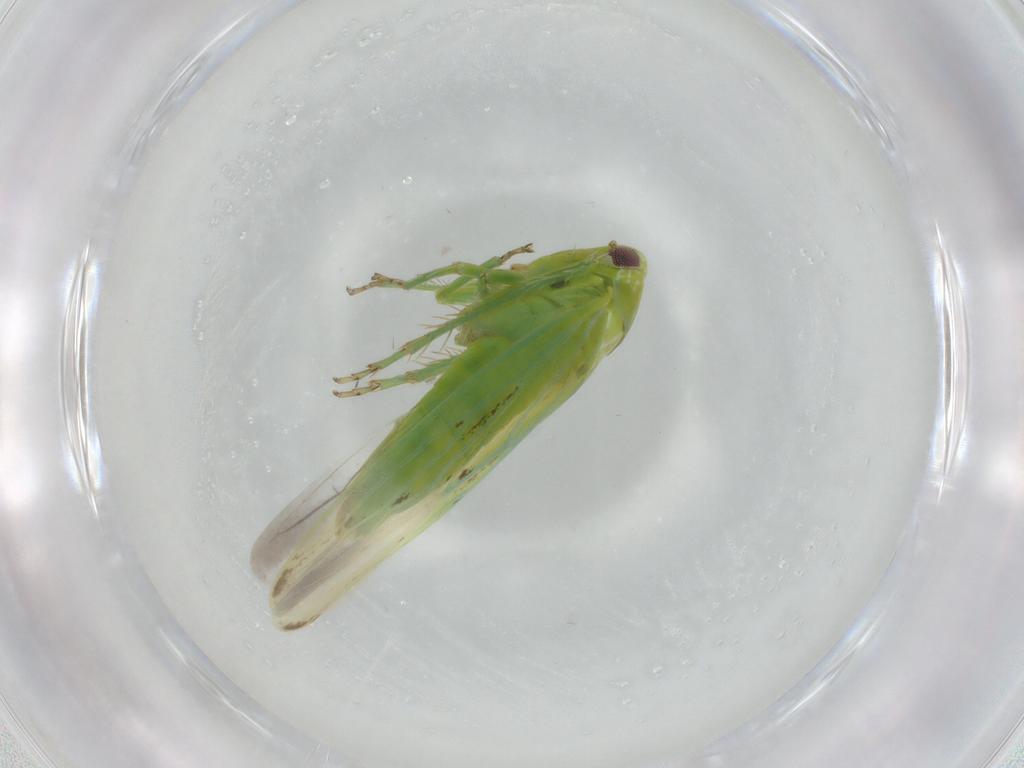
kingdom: Animalia
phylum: Arthropoda
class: Insecta
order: Hemiptera
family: Cicadellidae
